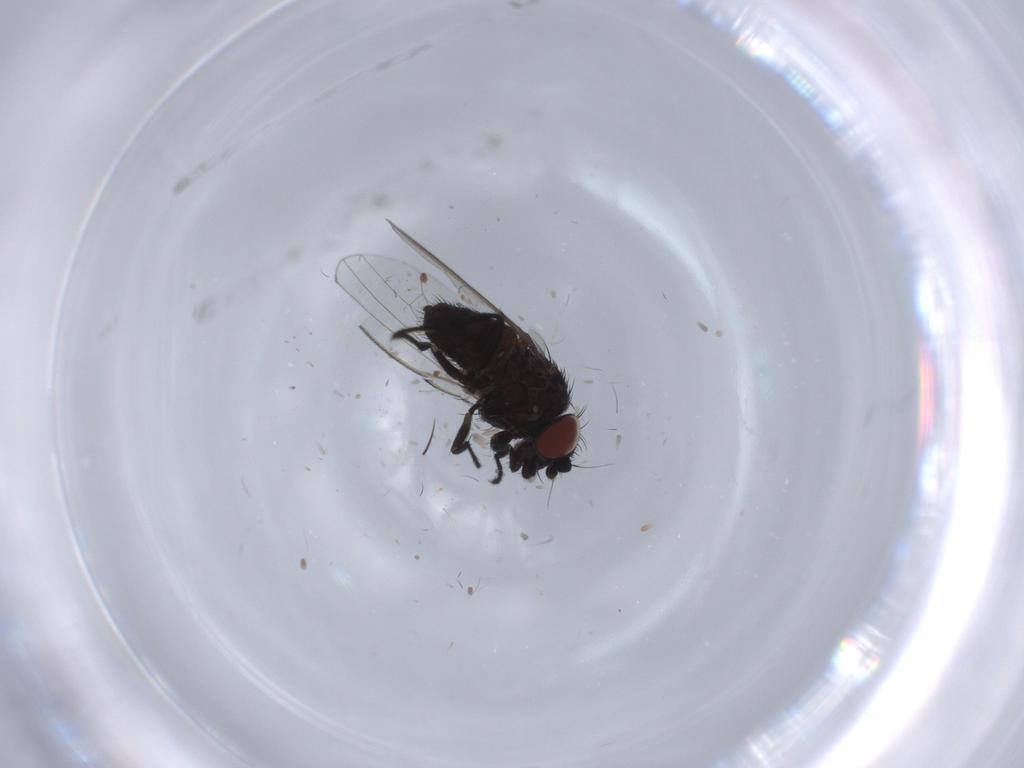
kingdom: Animalia
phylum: Arthropoda
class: Insecta
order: Diptera
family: Milichiidae
